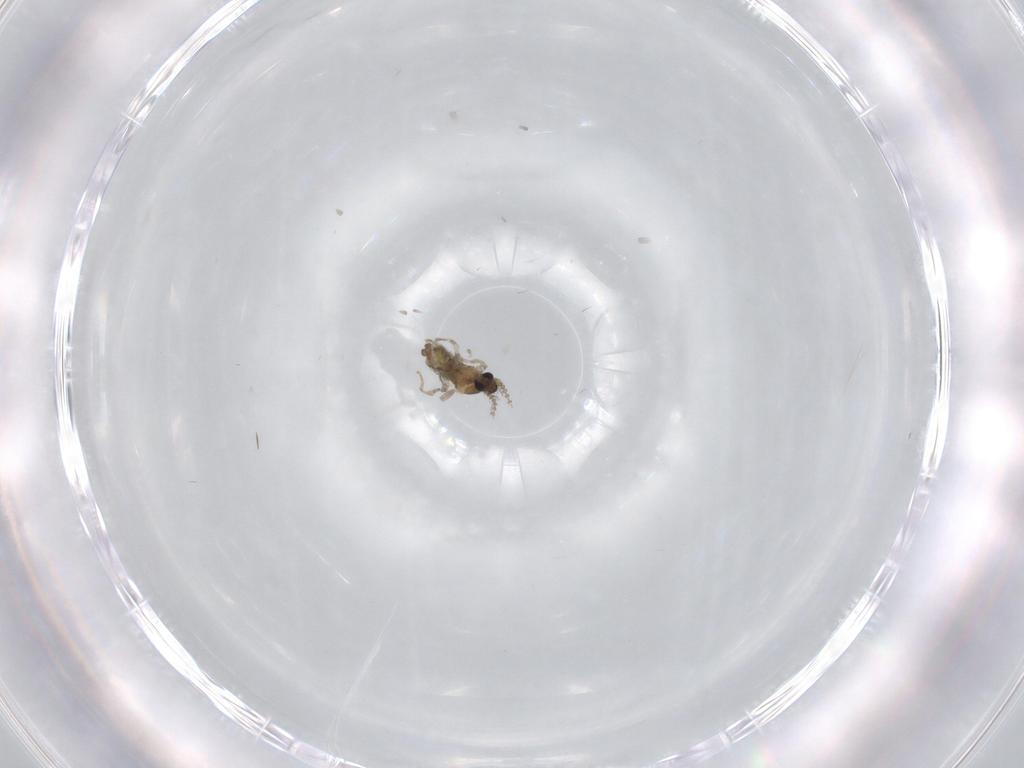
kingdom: Animalia
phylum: Arthropoda
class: Insecta
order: Diptera
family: Cecidomyiidae
